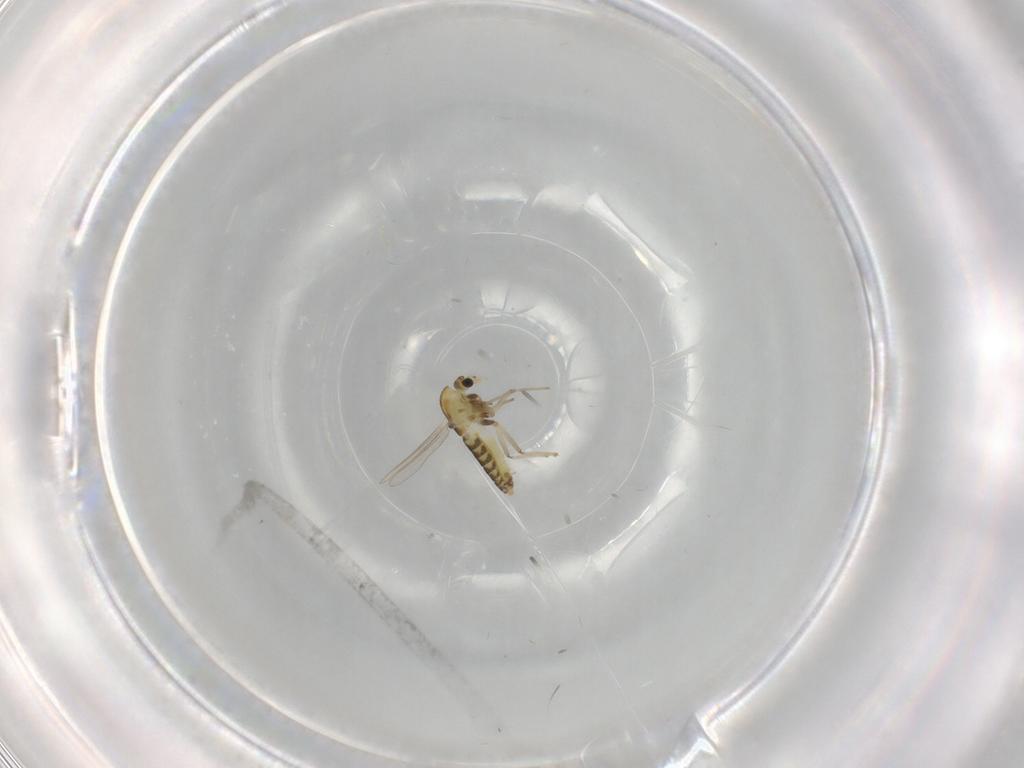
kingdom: Animalia
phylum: Arthropoda
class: Insecta
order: Diptera
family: Chironomidae
